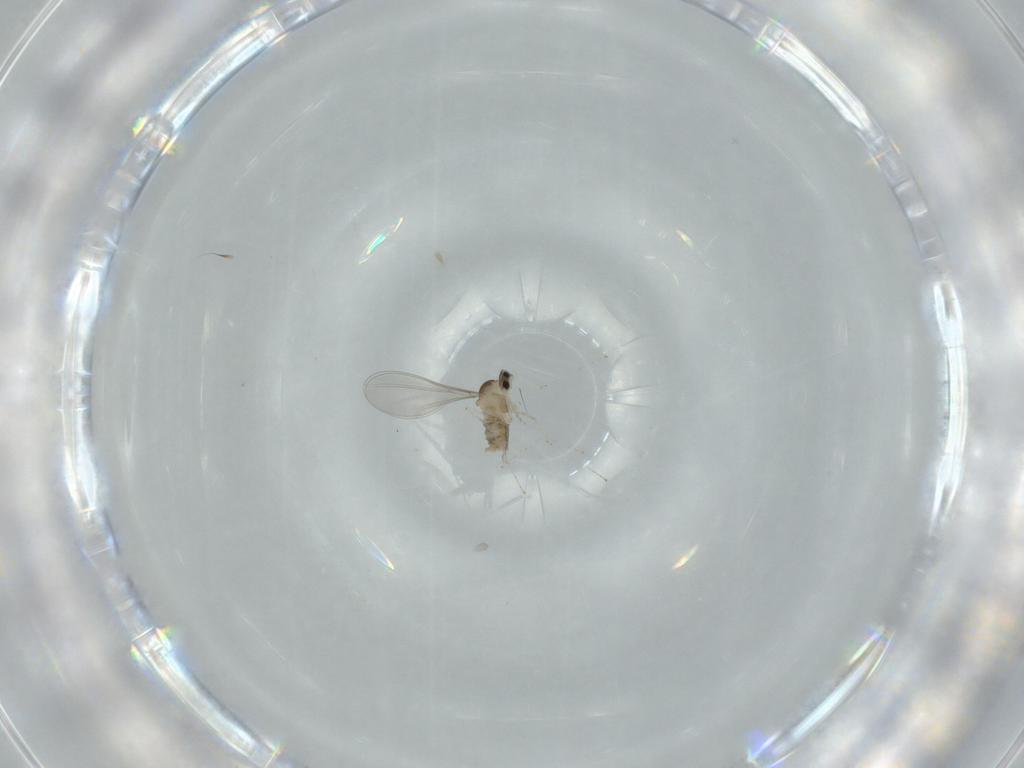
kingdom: Animalia
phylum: Arthropoda
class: Insecta
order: Diptera
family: Cecidomyiidae
